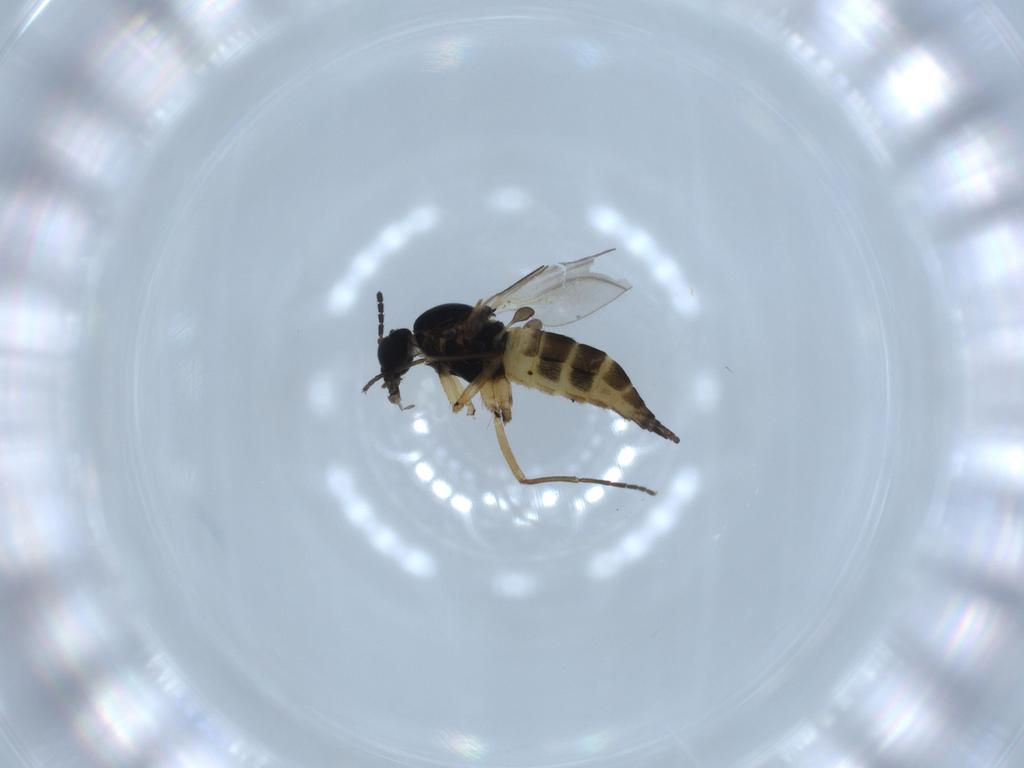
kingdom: Animalia
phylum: Arthropoda
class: Insecta
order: Diptera
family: Sciaridae
